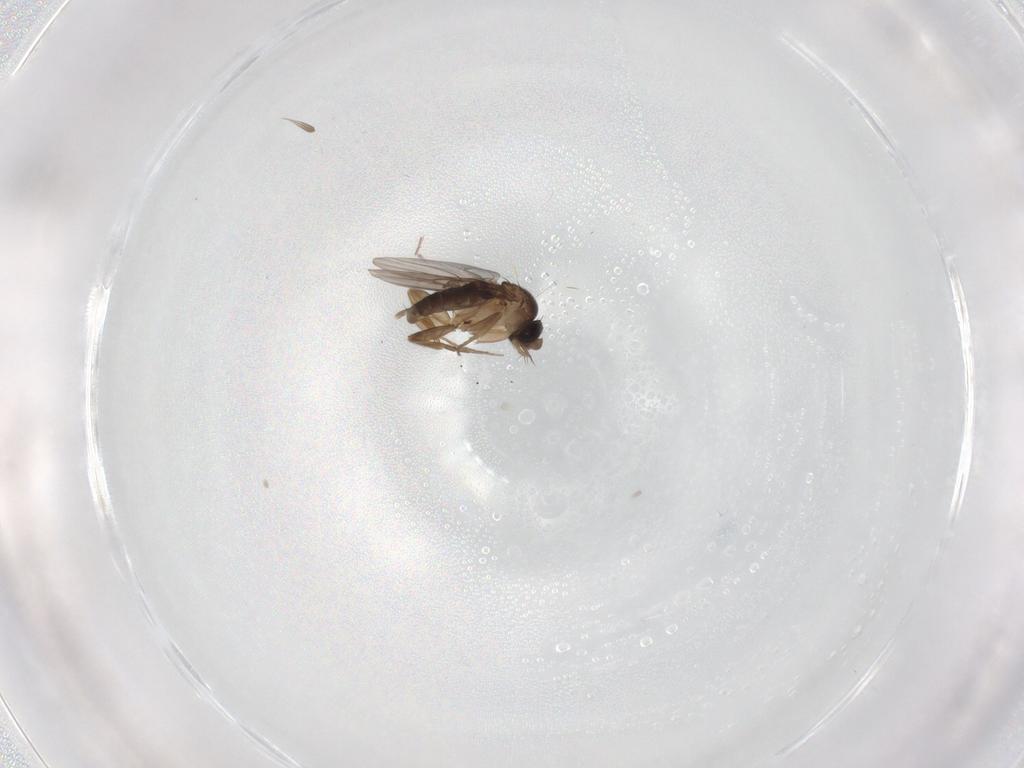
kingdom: Animalia
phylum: Arthropoda
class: Insecta
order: Diptera
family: Phoridae
